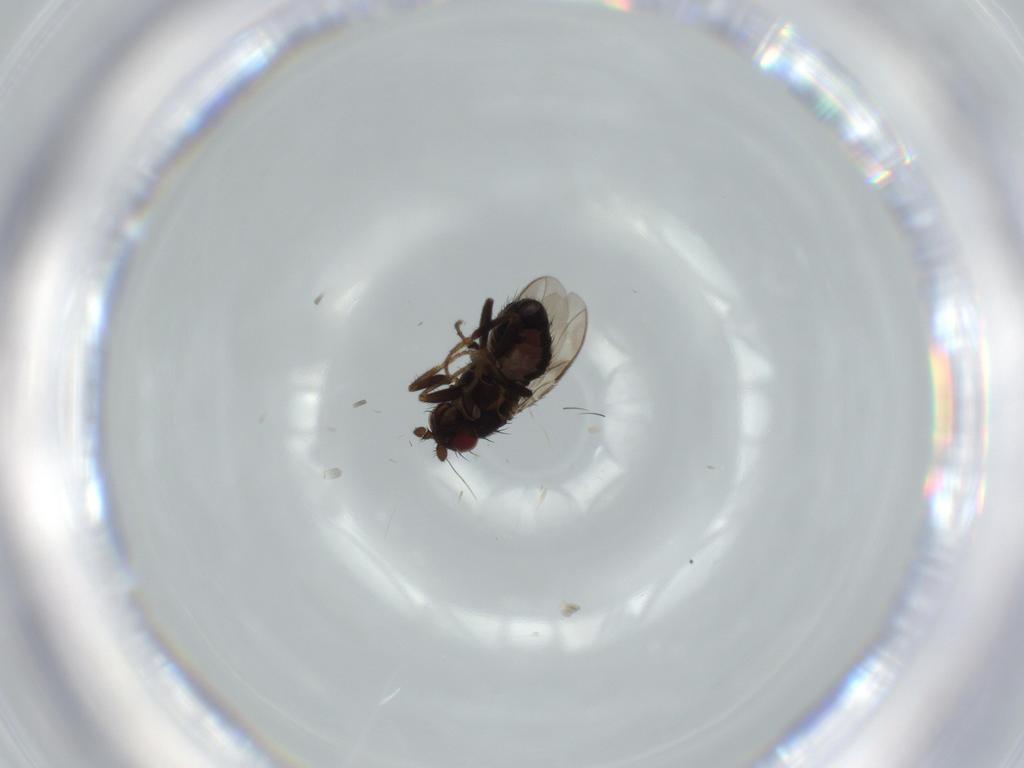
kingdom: Animalia
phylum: Arthropoda
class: Insecta
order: Diptera
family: Sphaeroceridae
